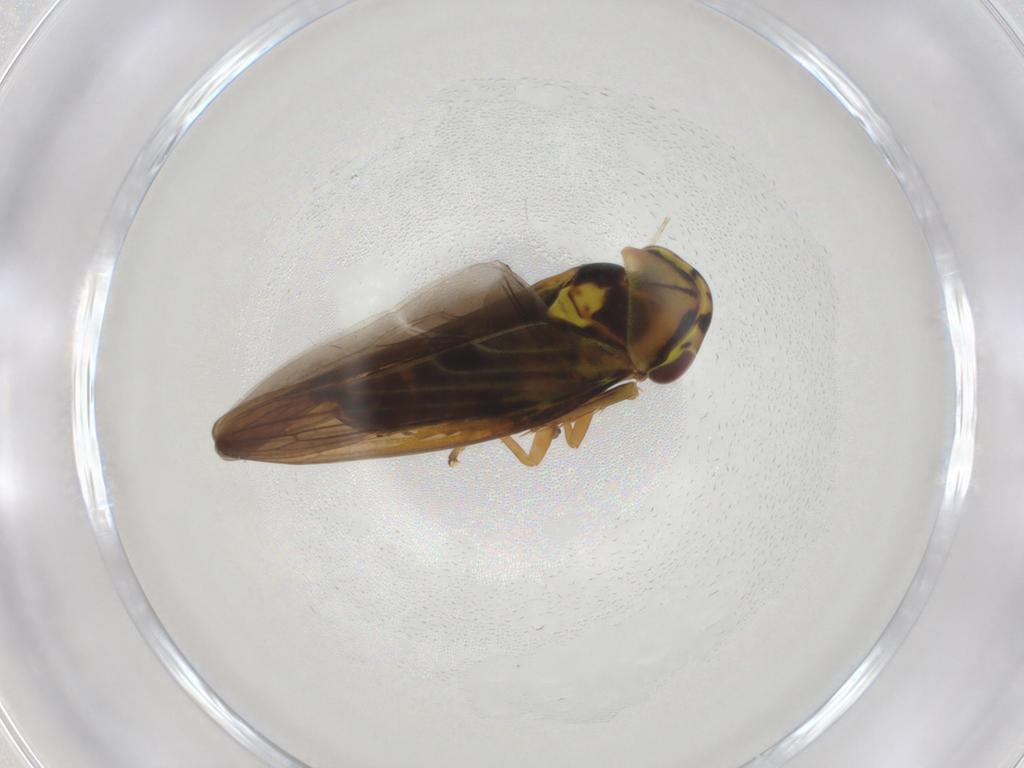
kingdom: Animalia
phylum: Arthropoda
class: Insecta
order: Hemiptera
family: Cicadellidae
